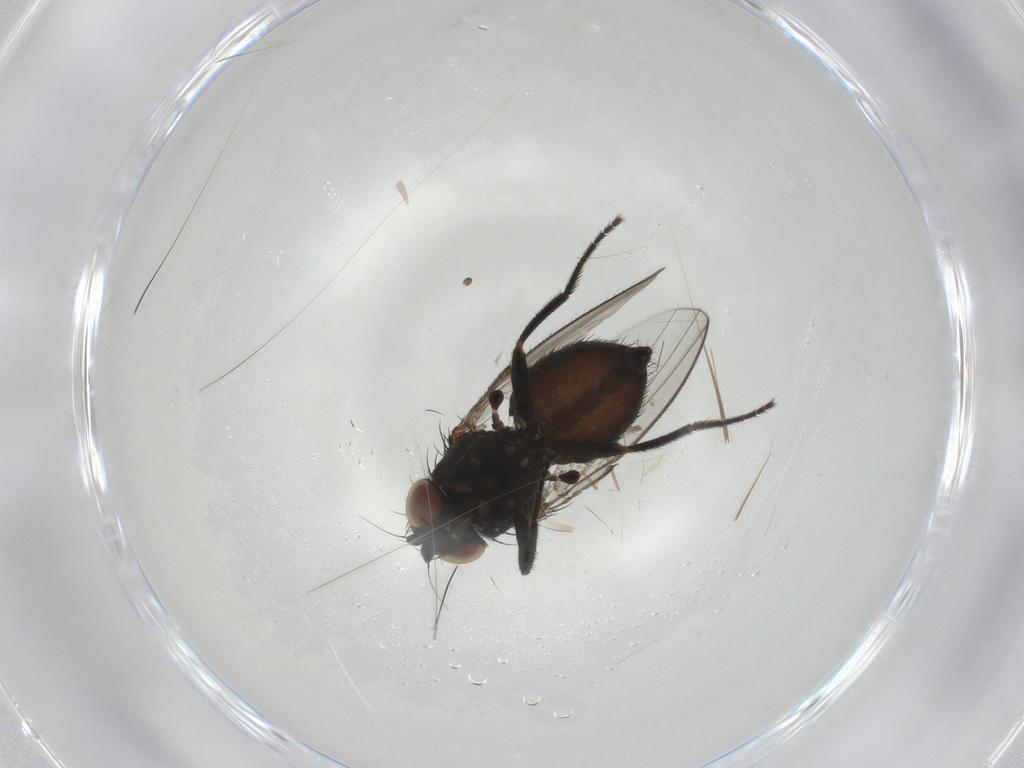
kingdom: Animalia
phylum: Arthropoda
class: Insecta
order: Diptera
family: Milichiidae
